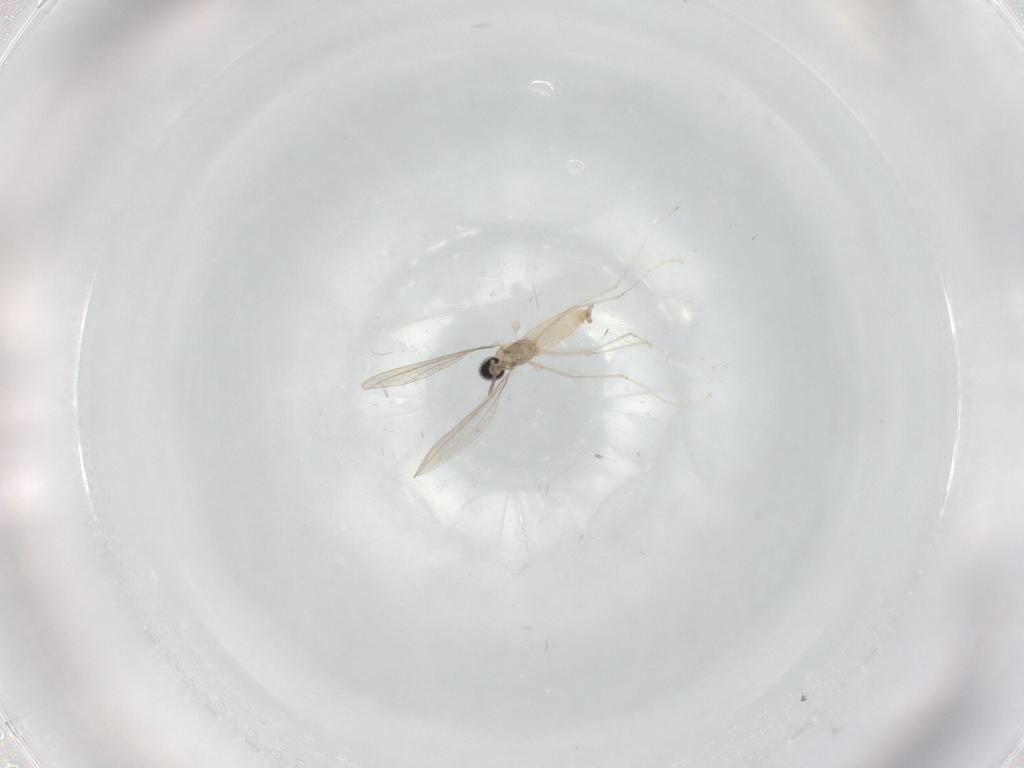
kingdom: Animalia
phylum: Arthropoda
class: Insecta
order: Diptera
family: Cecidomyiidae
